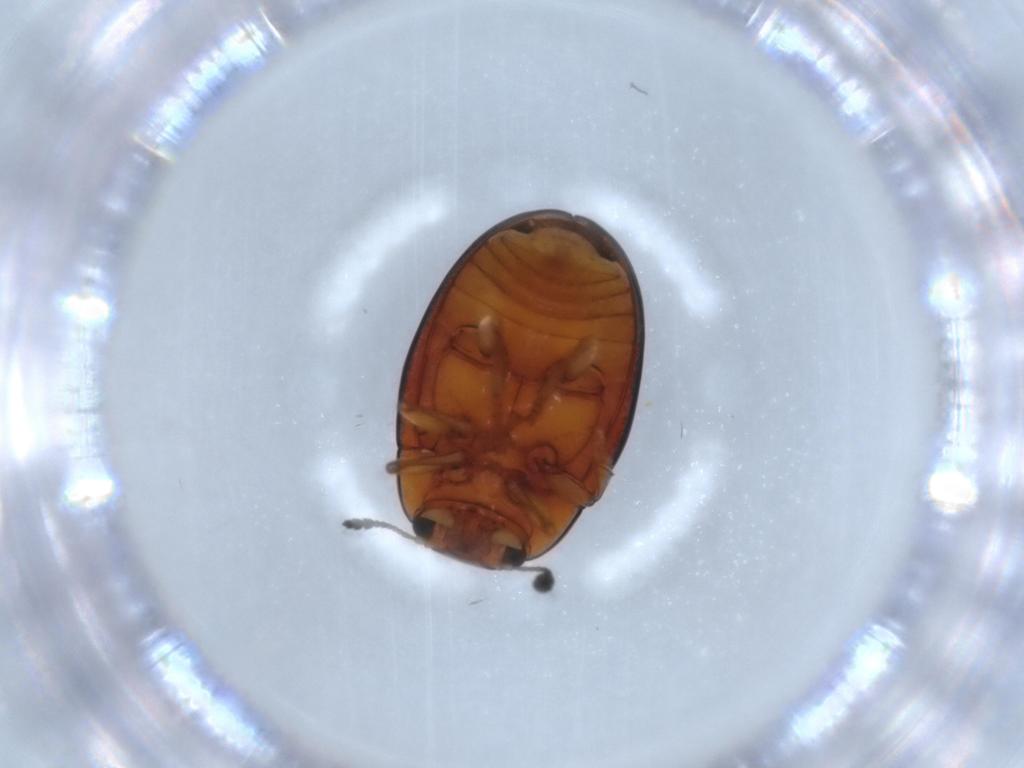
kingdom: Animalia
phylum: Arthropoda
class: Insecta
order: Coleoptera
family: Erotylidae
